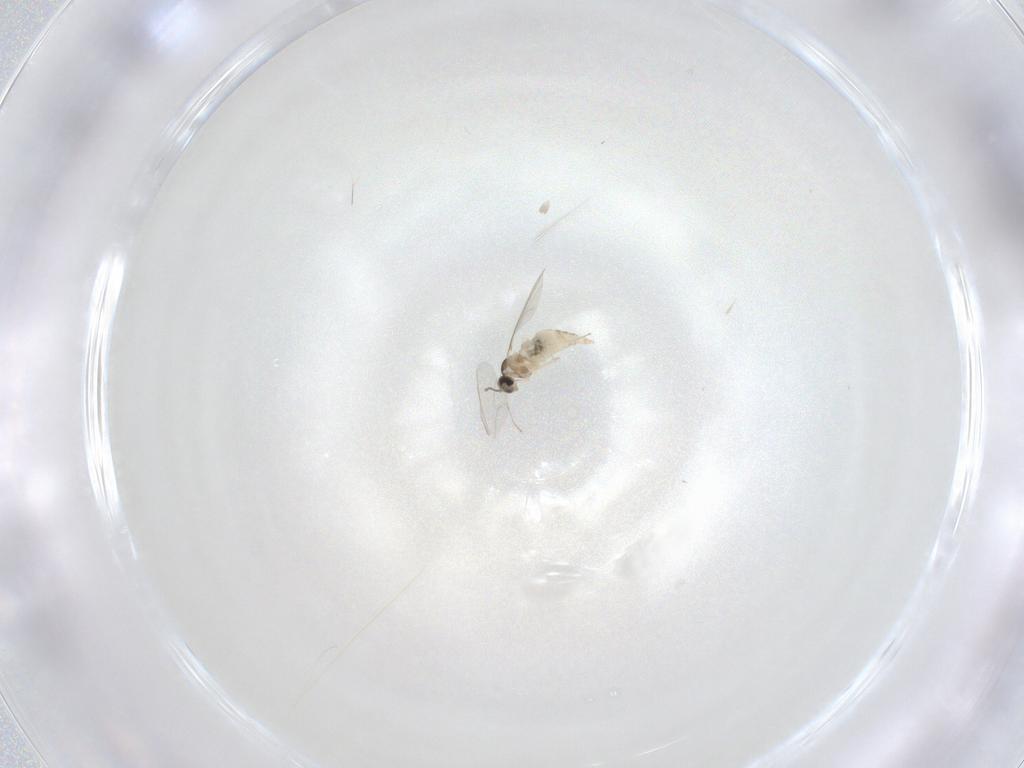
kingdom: Animalia
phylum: Arthropoda
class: Insecta
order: Diptera
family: Cecidomyiidae
